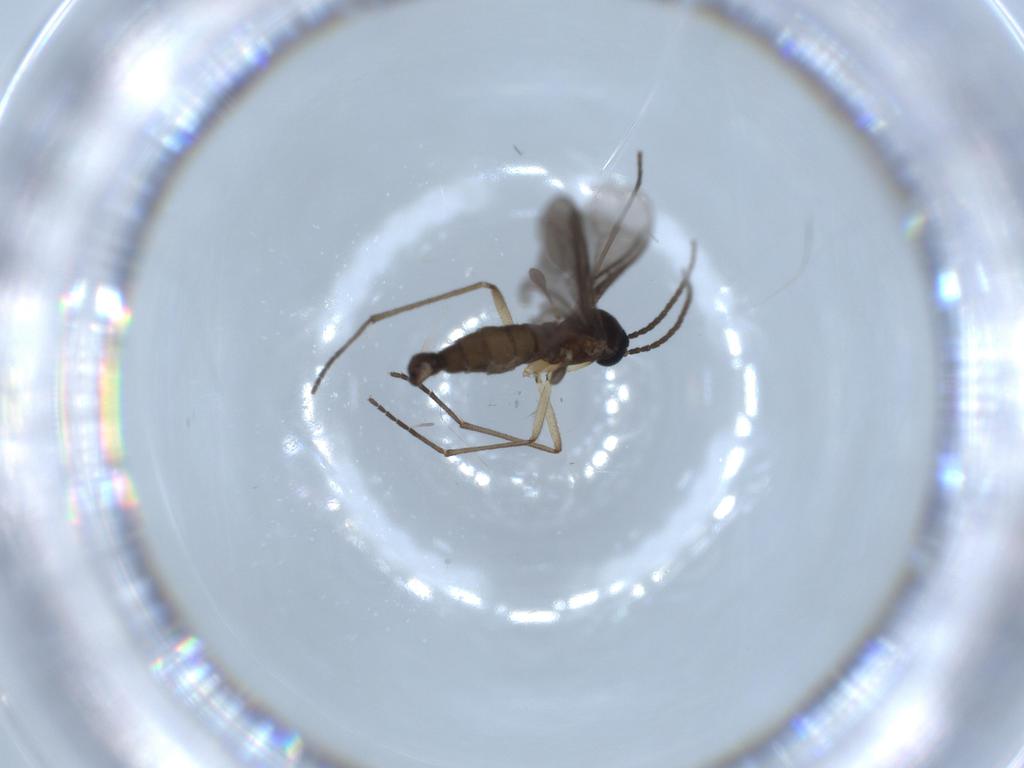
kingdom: Animalia
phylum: Arthropoda
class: Insecta
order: Diptera
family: Sciaridae
